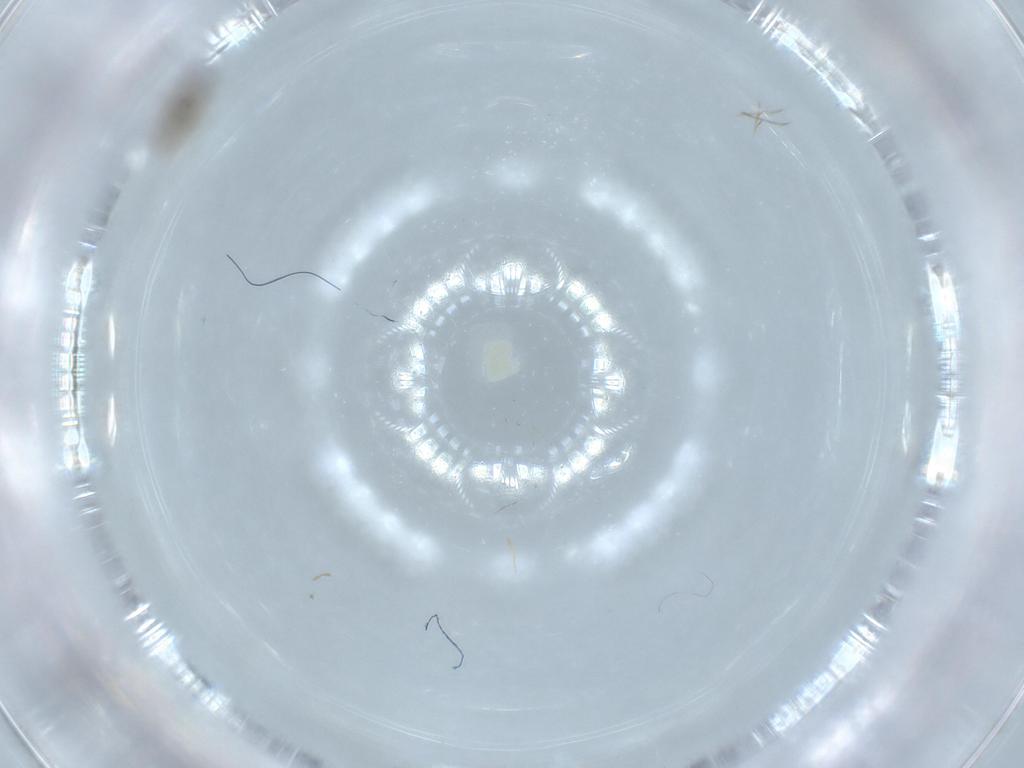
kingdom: Animalia
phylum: Arthropoda
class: Insecta
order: Diptera
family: Cecidomyiidae
